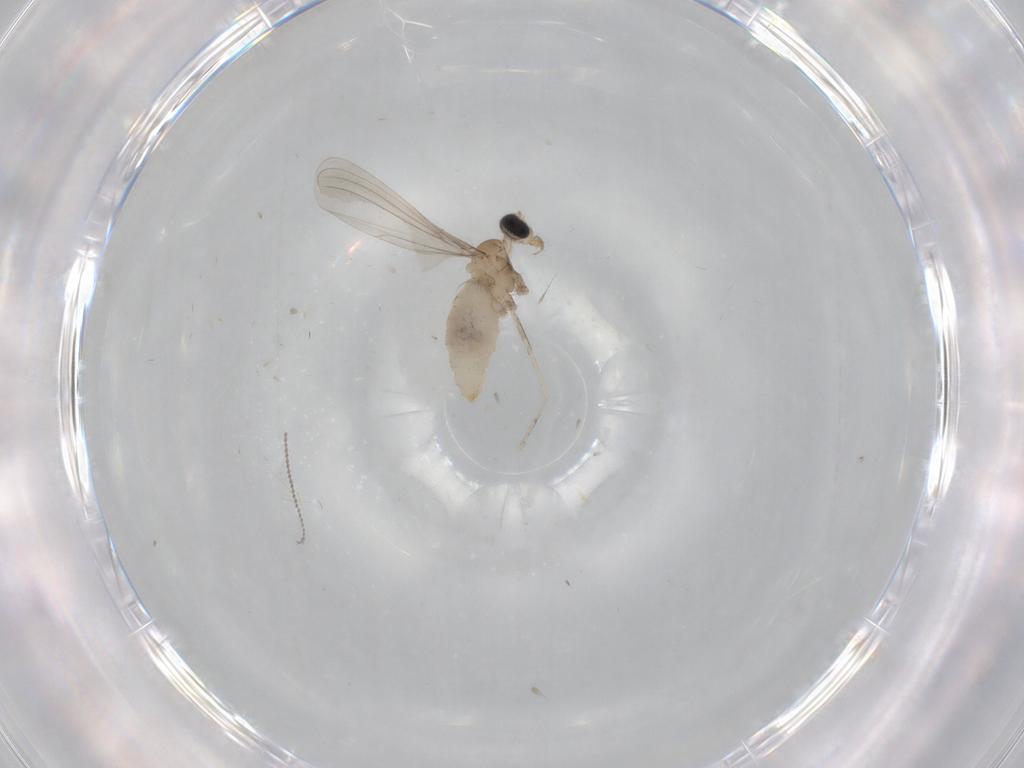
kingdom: Animalia
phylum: Arthropoda
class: Insecta
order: Diptera
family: Cecidomyiidae
